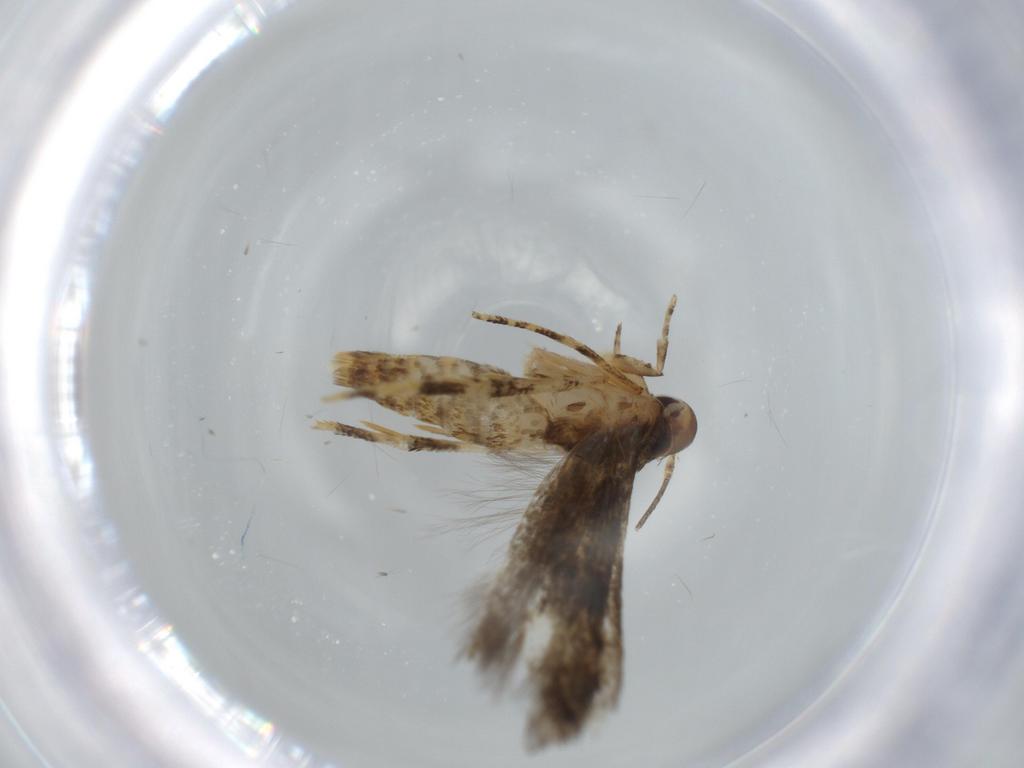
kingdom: Animalia
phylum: Arthropoda
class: Insecta
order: Lepidoptera
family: Momphidae
